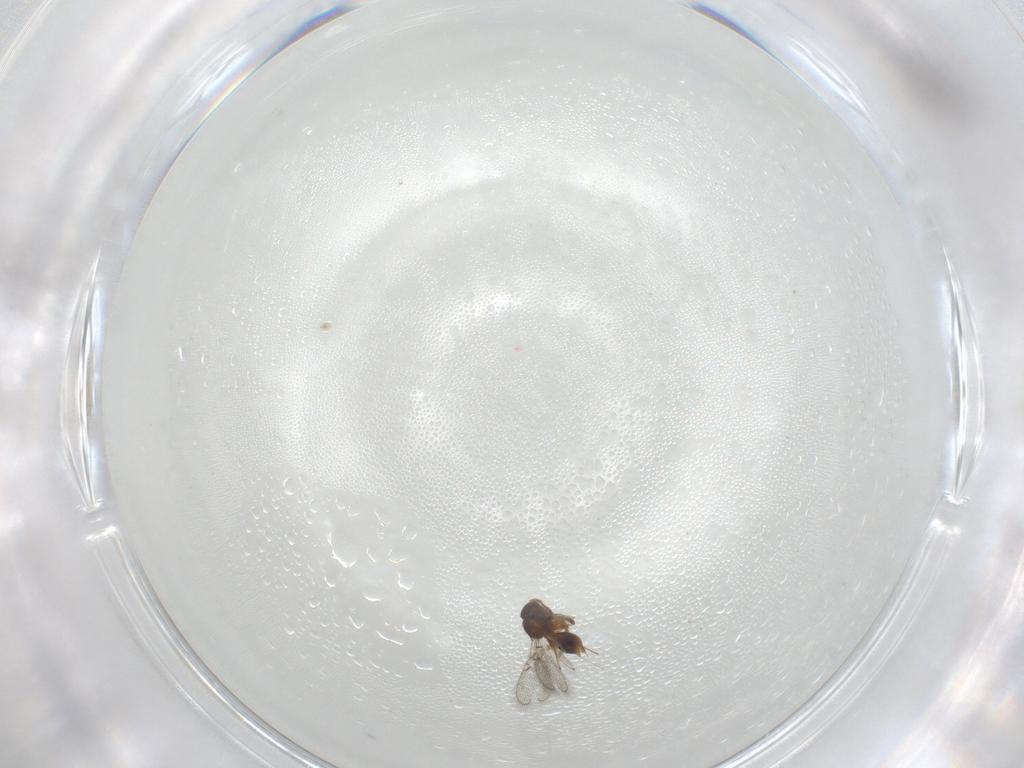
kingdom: Animalia
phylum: Arthropoda
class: Insecta
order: Hymenoptera
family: Figitidae
